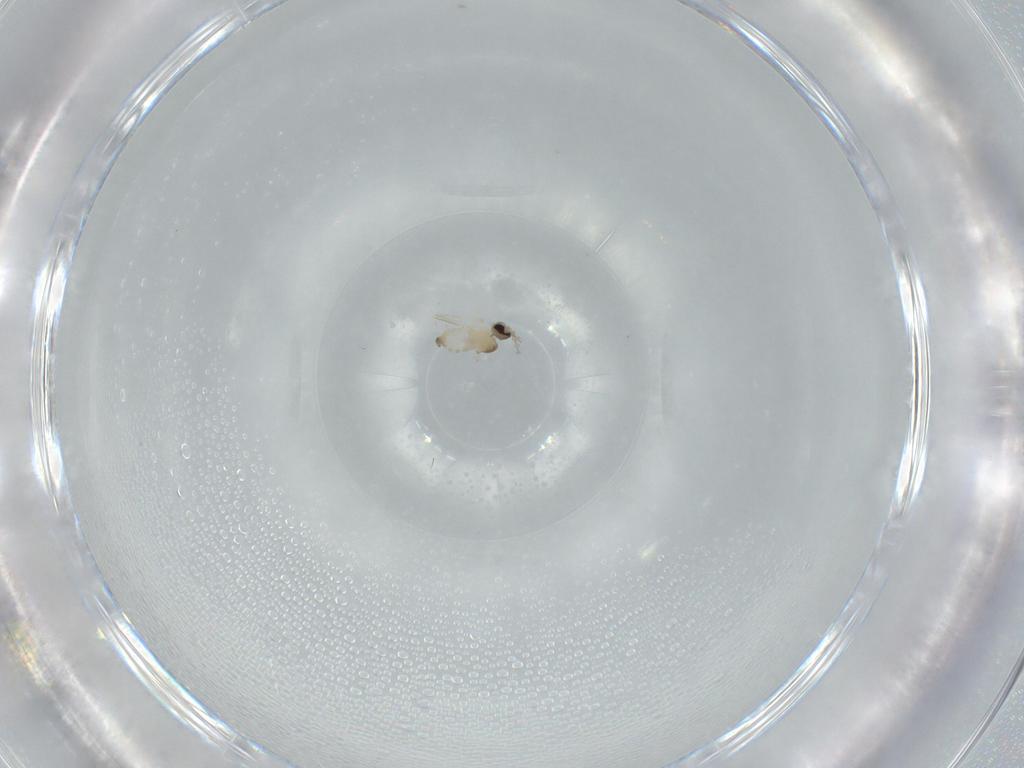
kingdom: Animalia
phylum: Arthropoda
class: Insecta
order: Diptera
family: Cecidomyiidae
